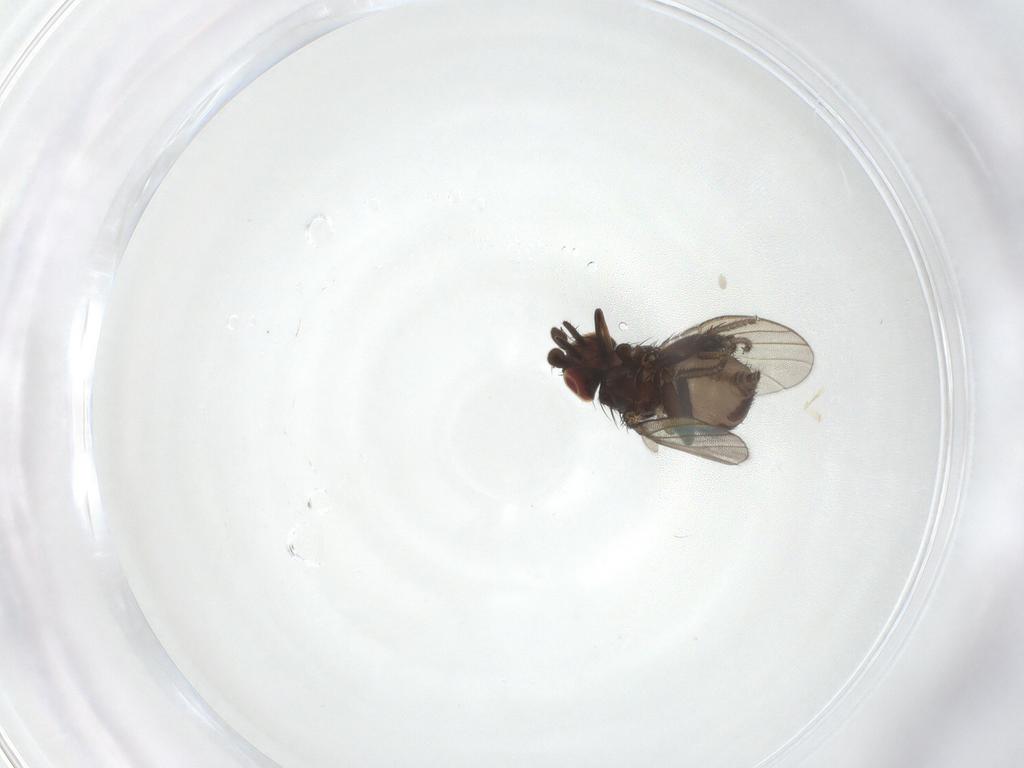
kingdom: Animalia
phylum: Arthropoda
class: Insecta
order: Diptera
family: Milichiidae
